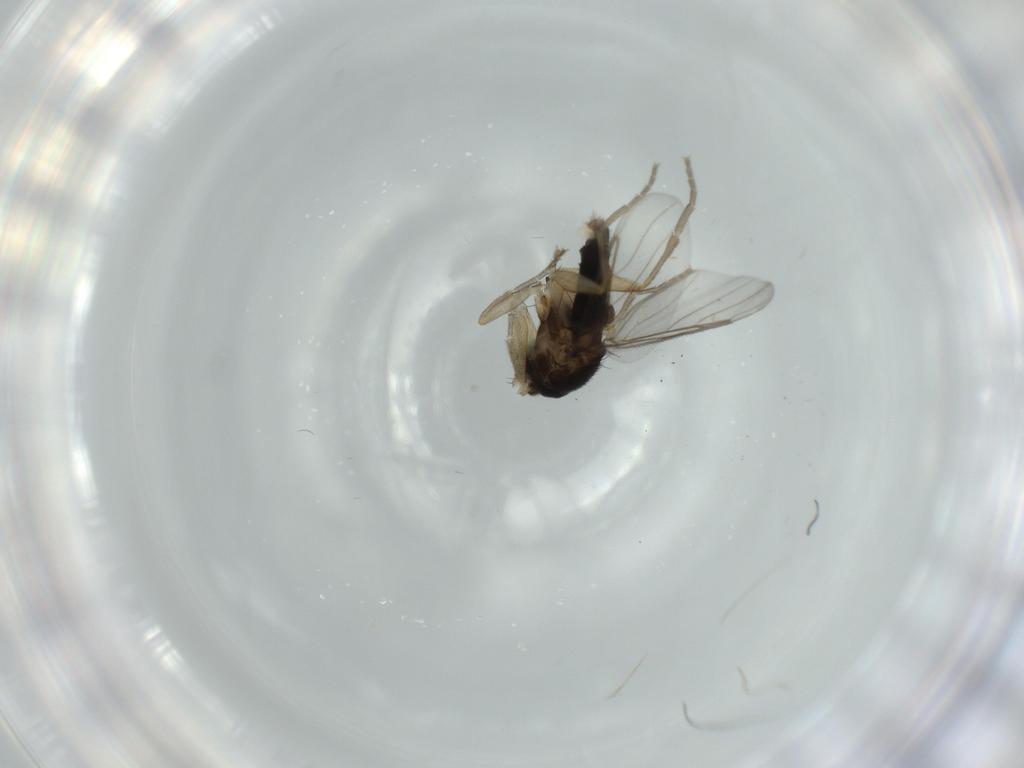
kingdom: Animalia
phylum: Arthropoda
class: Insecta
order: Diptera
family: Phoridae
